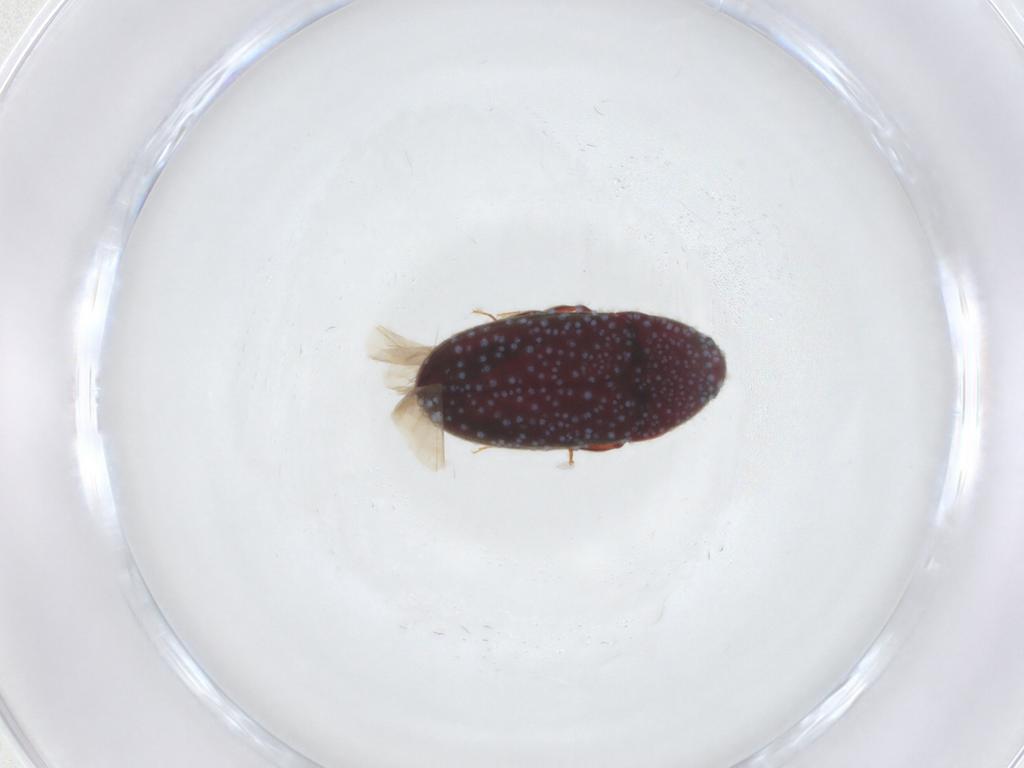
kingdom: Animalia
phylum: Arthropoda
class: Insecta
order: Coleoptera
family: Throscidae
